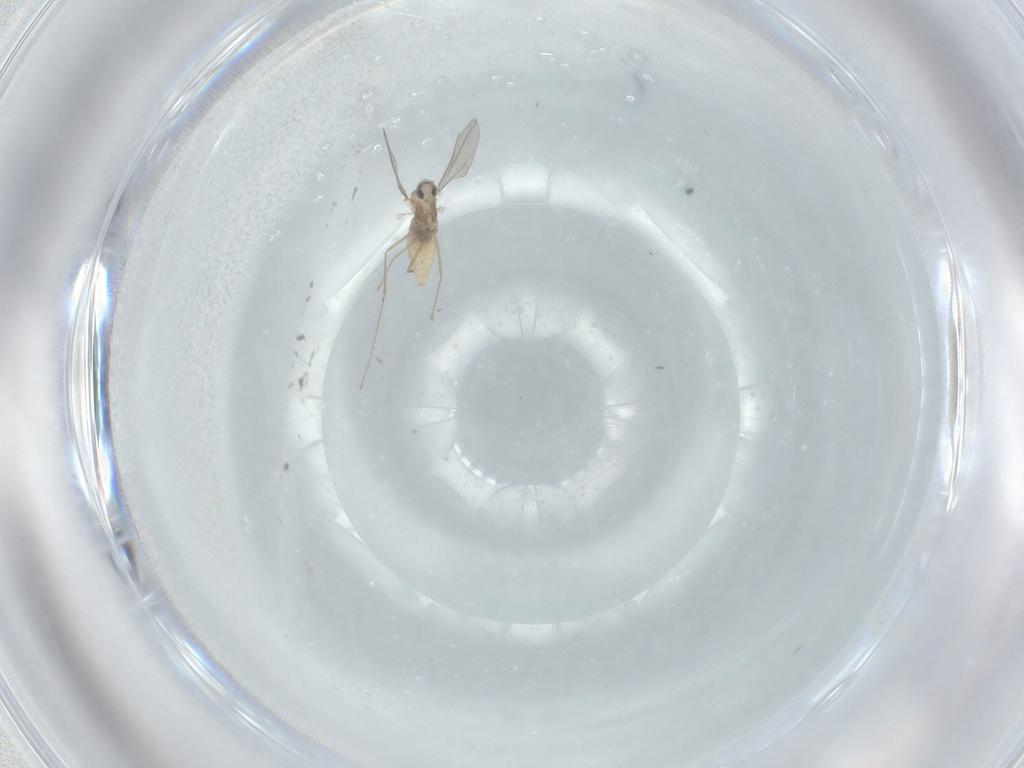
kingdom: Animalia
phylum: Arthropoda
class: Insecta
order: Diptera
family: Cecidomyiidae
